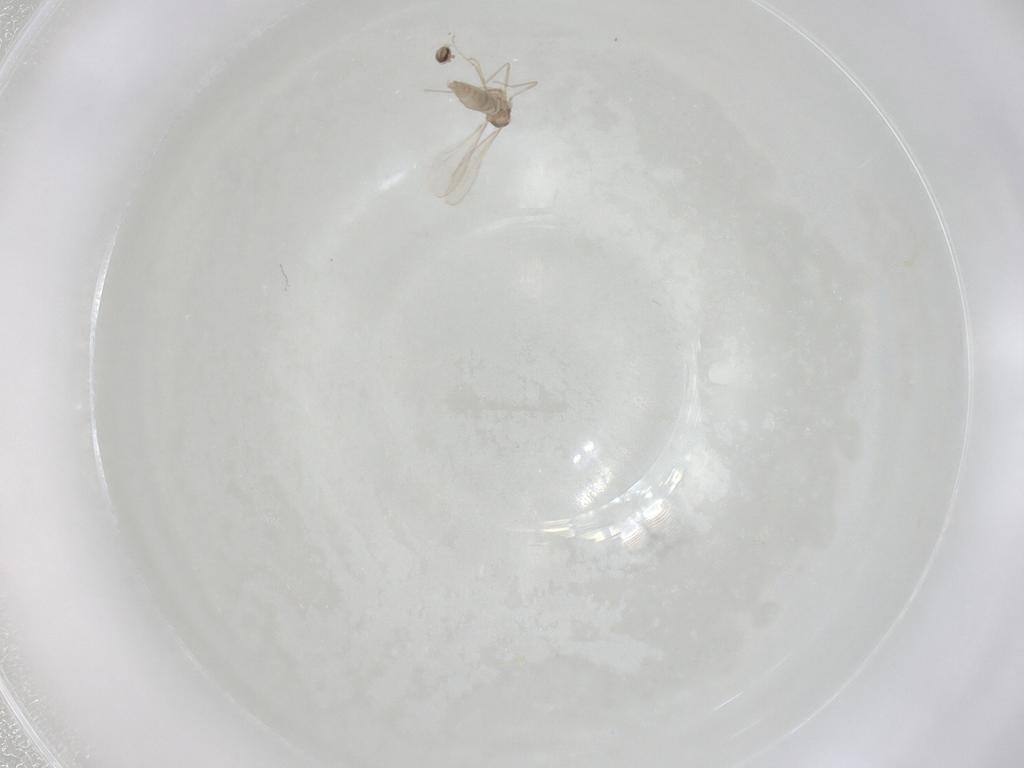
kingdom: Animalia
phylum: Arthropoda
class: Insecta
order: Diptera
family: Cecidomyiidae
